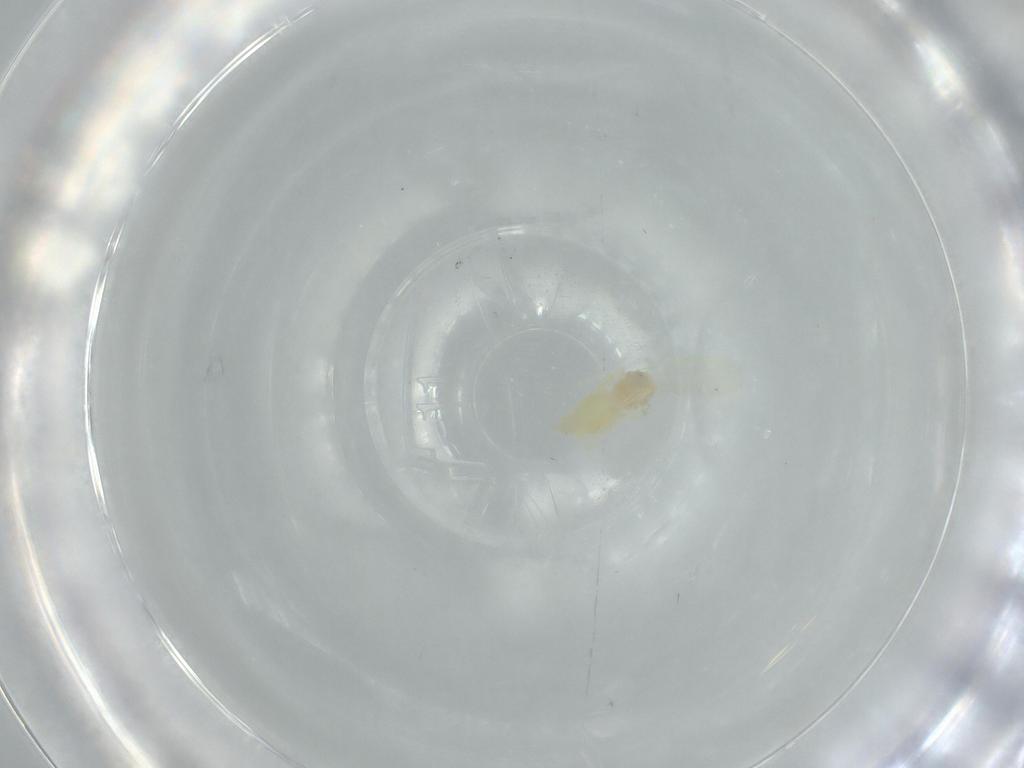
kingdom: Animalia
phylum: Arthropoda
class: Insecta
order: Hemiptera
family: Aleyrodidae
